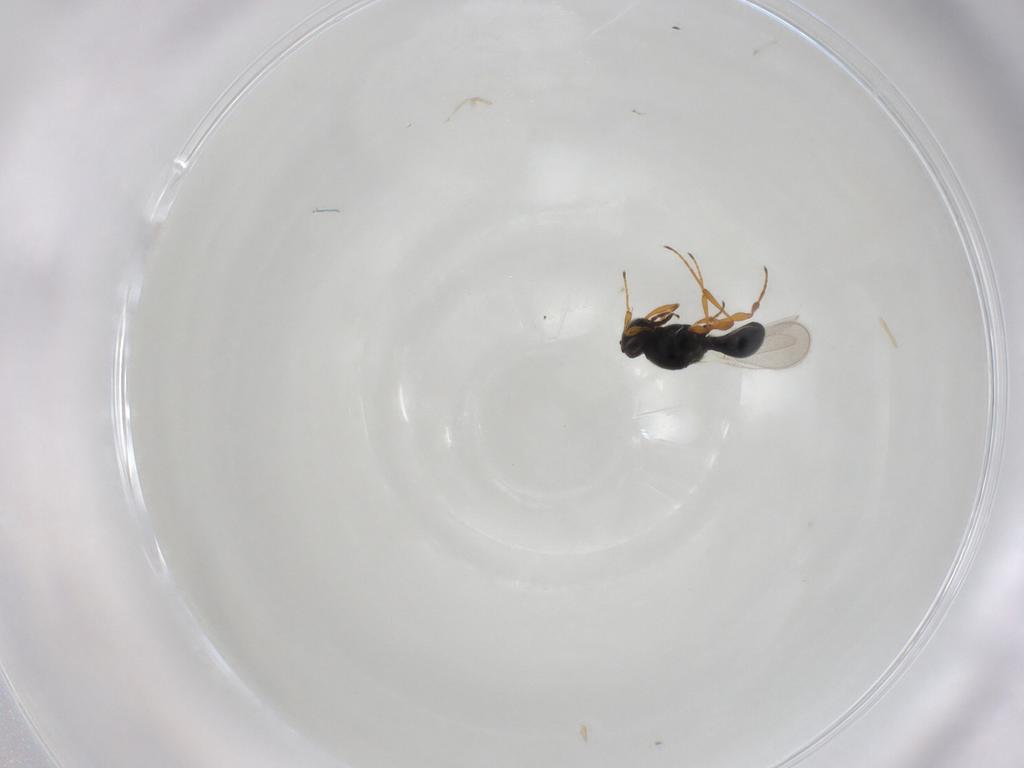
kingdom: Animalia
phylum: Arthropoda
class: Insecta
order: Hymenoptera
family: Platygastridae
